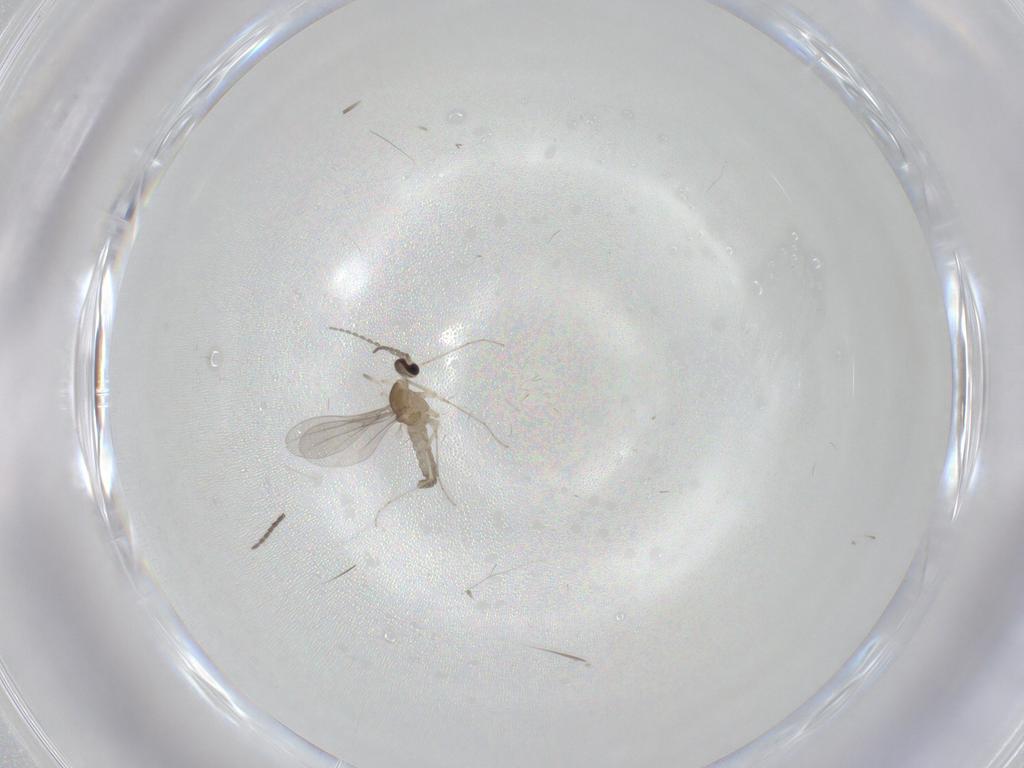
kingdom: Animalia
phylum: Arthropoda
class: Insecta
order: Diptera
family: Sciaridae
